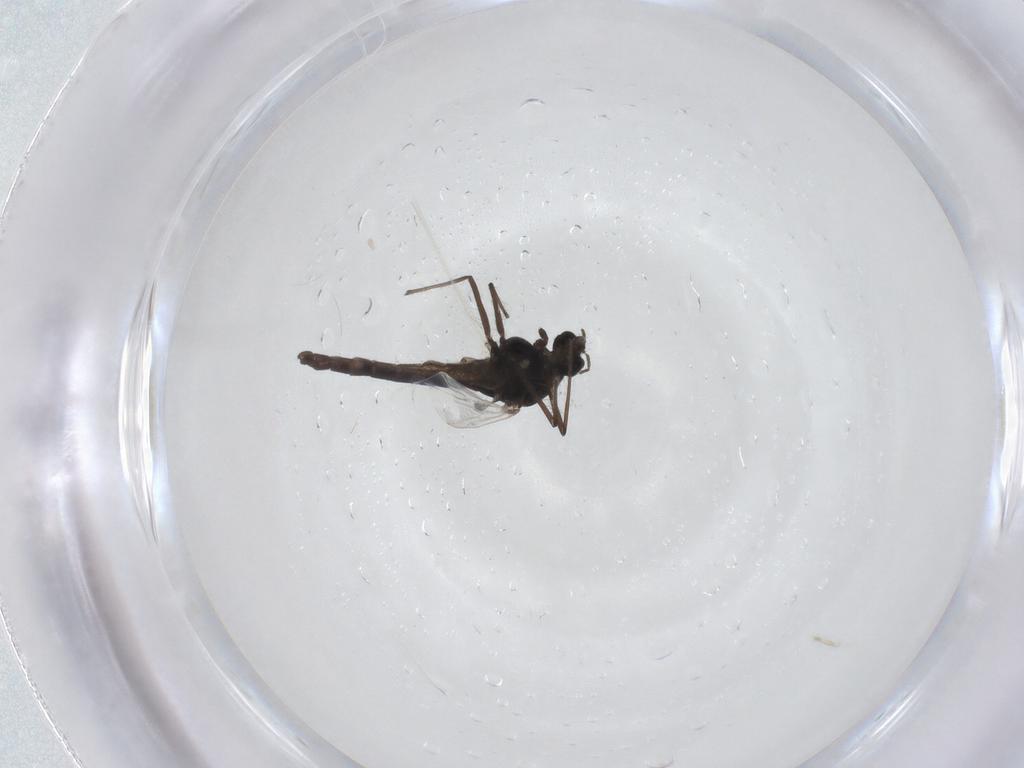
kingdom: Animalia
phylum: Arthropoda
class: Insecta
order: Diptera
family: Chironomidae
